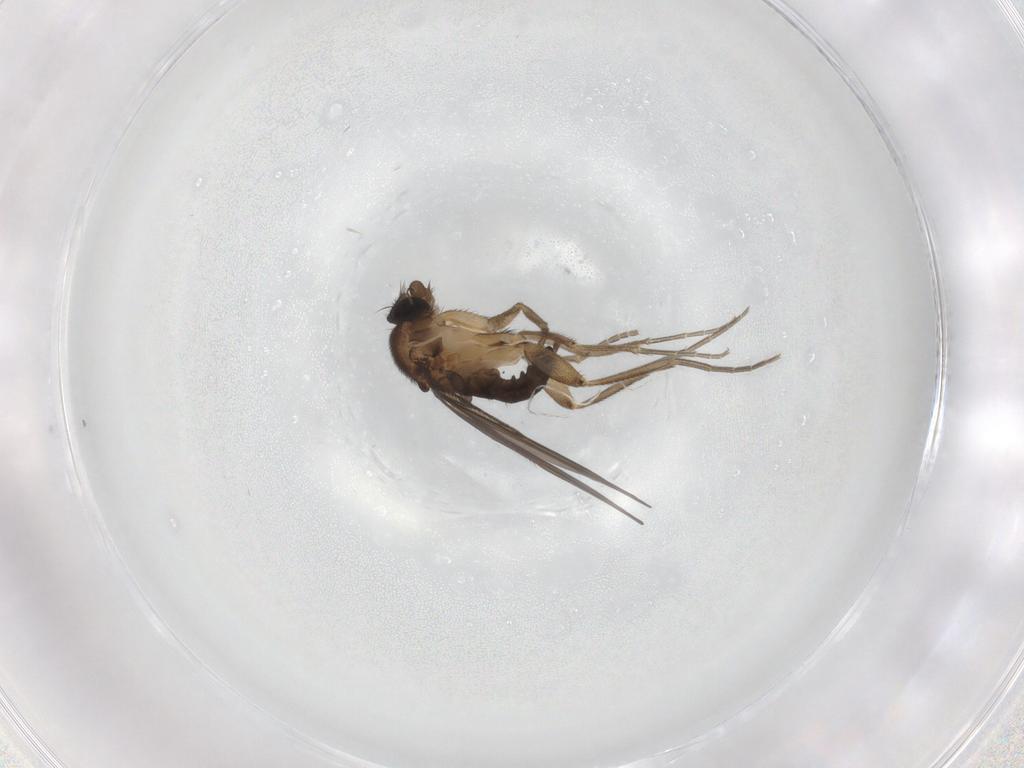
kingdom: Animalia
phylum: Arthropoda
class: Insecta
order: Diptera
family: Phoridae
